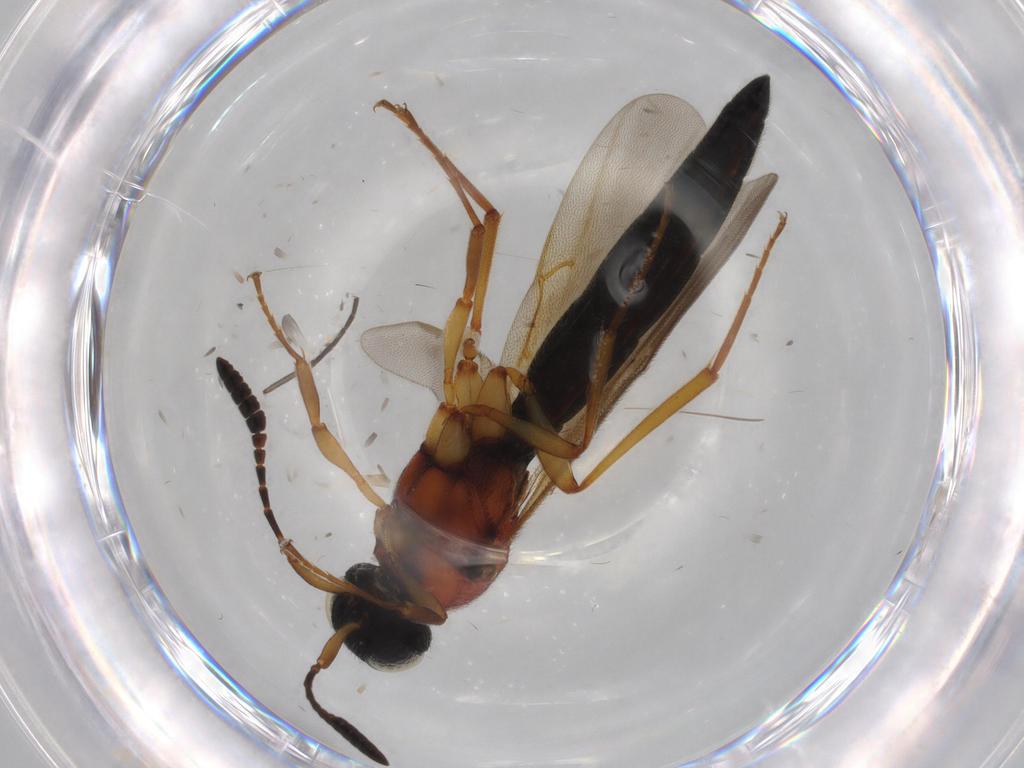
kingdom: Animalia
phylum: Arthropoda
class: Insecta
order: Hymenoptera
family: Scelionidae
